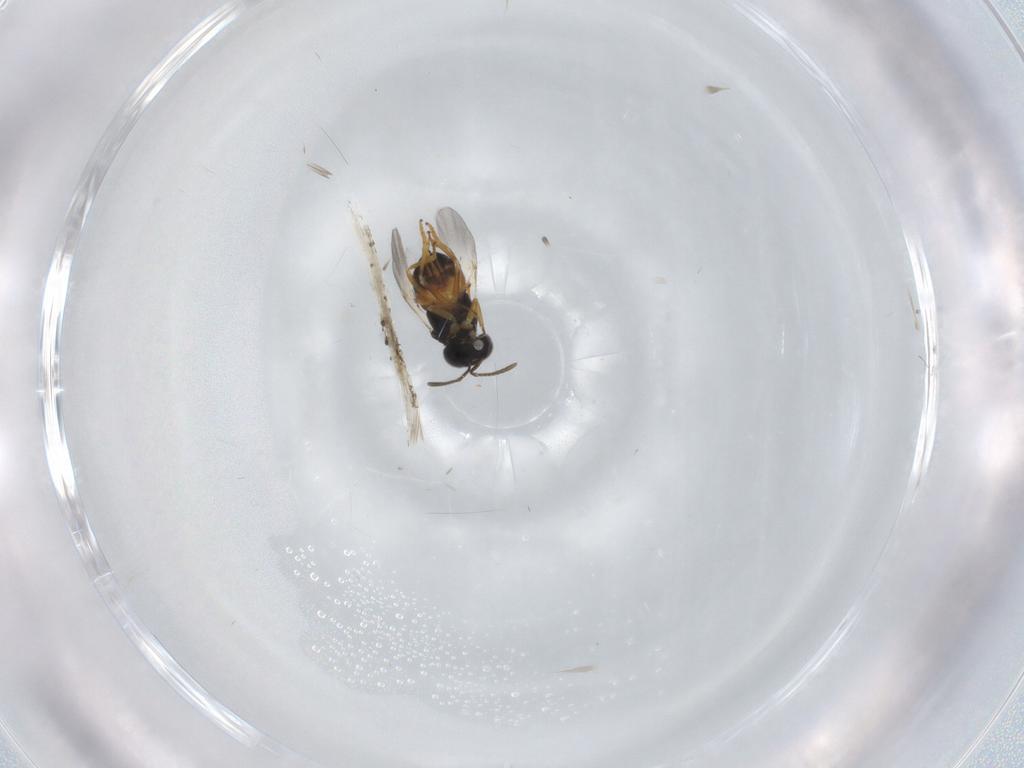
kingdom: Animalia
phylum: Arthropoda
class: Insecta
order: Hymenoptera
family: Encyrtidae
